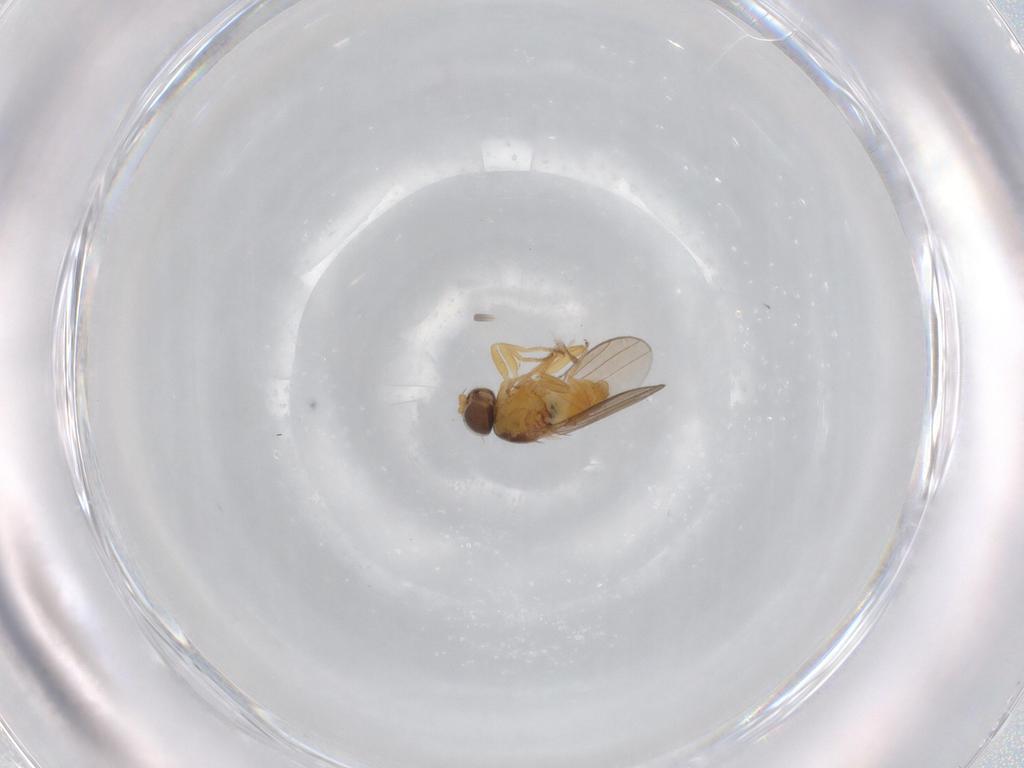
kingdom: Animalia
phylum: Arthropoda
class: Insecta
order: Diptera
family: Chloropidae
